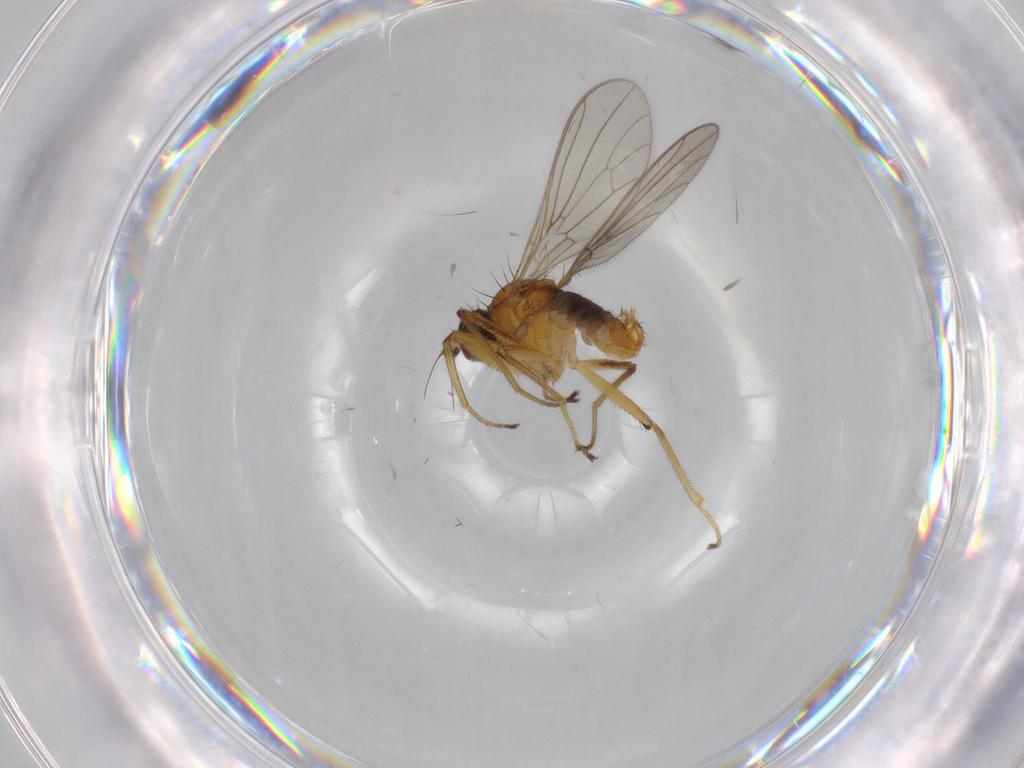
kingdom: Animalia
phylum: Arthropoda
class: Insecta
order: Diptera
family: Empididae
